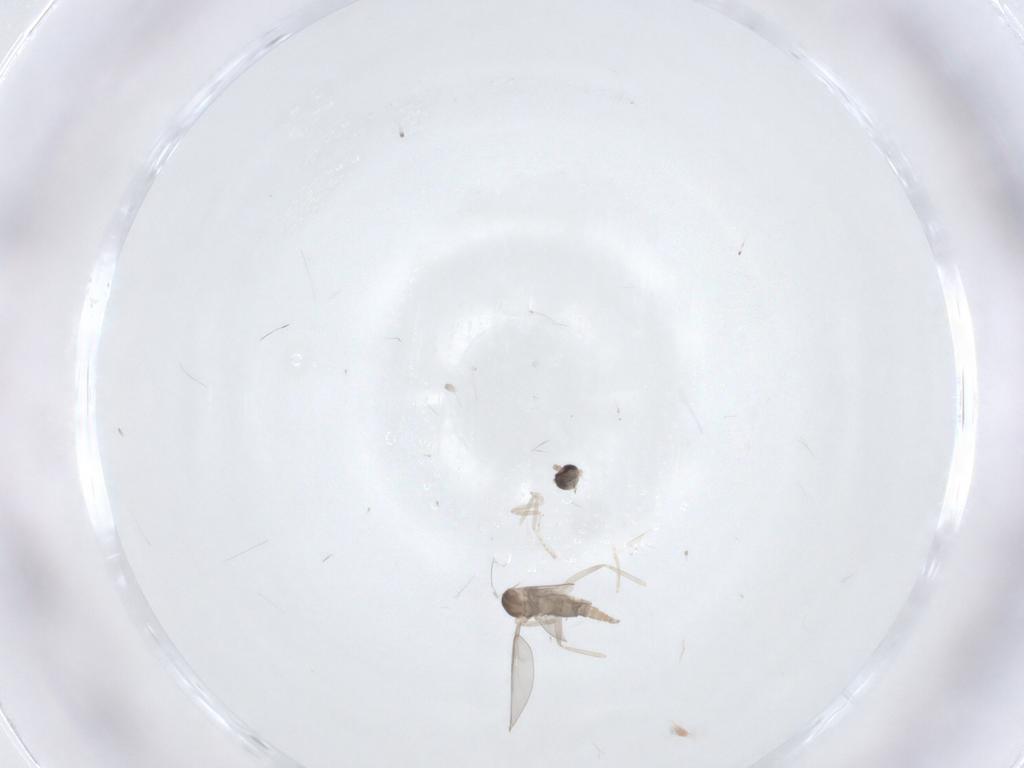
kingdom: Animalia
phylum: Arthropoda
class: Insecta
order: Diptera
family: Cecidomyiidae
